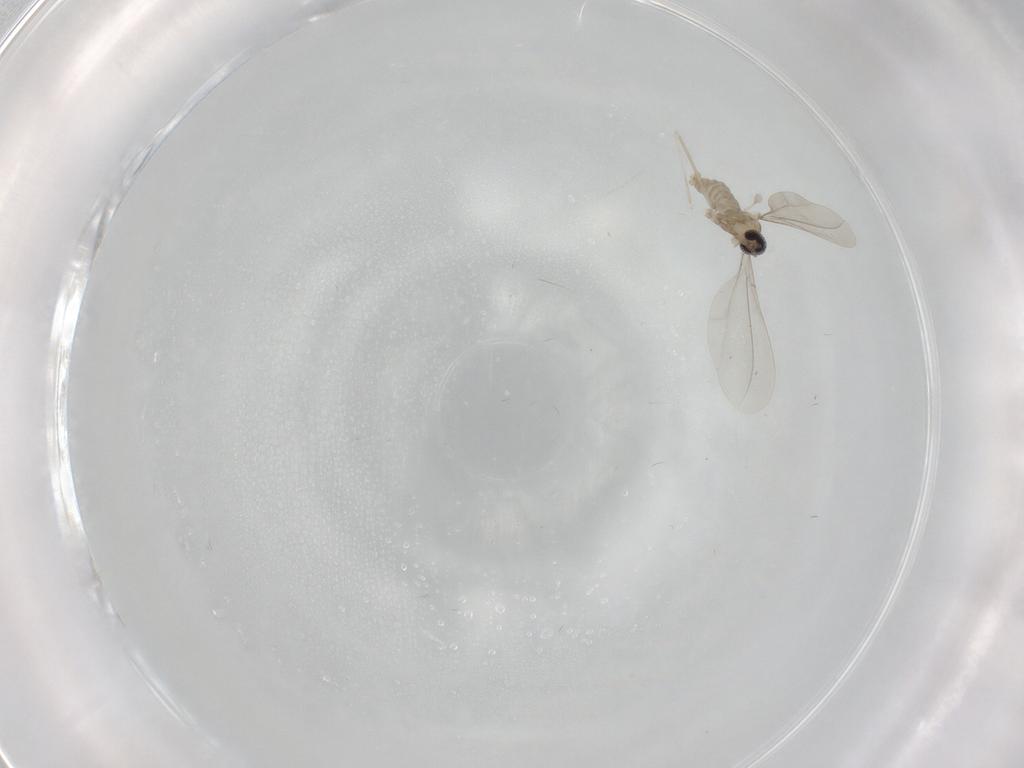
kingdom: Animalia
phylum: Arthropoda
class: Insecta
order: Diptera
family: Cecidomyiidae
